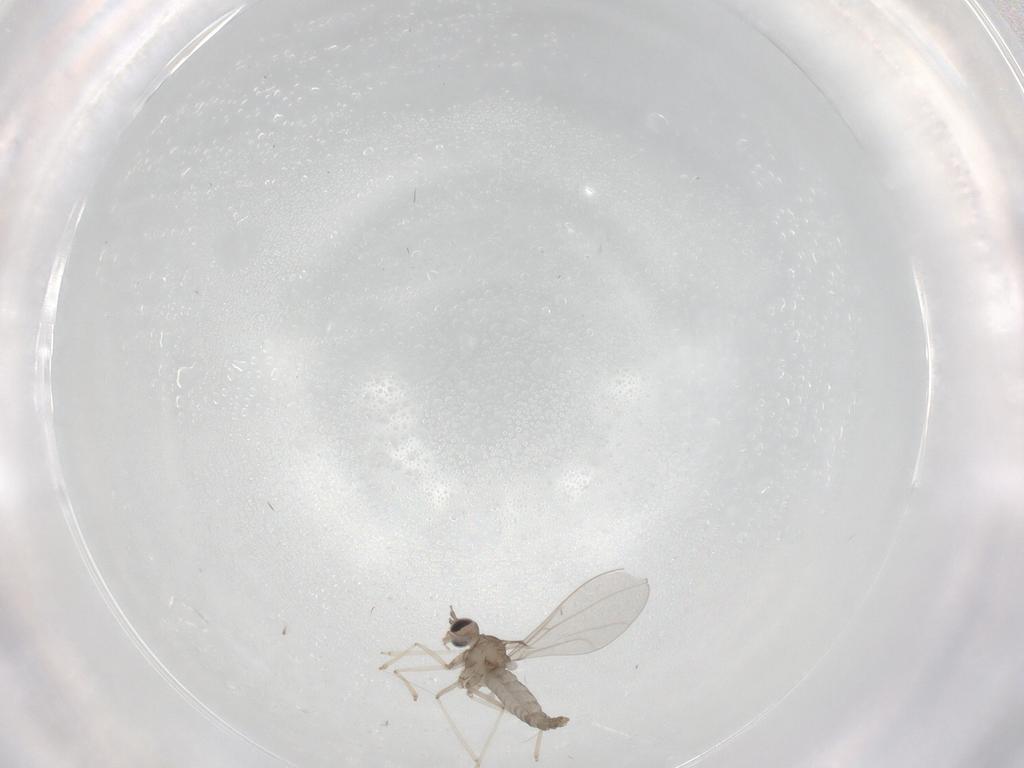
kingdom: Animalia
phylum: Arthropoda
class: Insecta
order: Diptera
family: Cecidomyiidae
